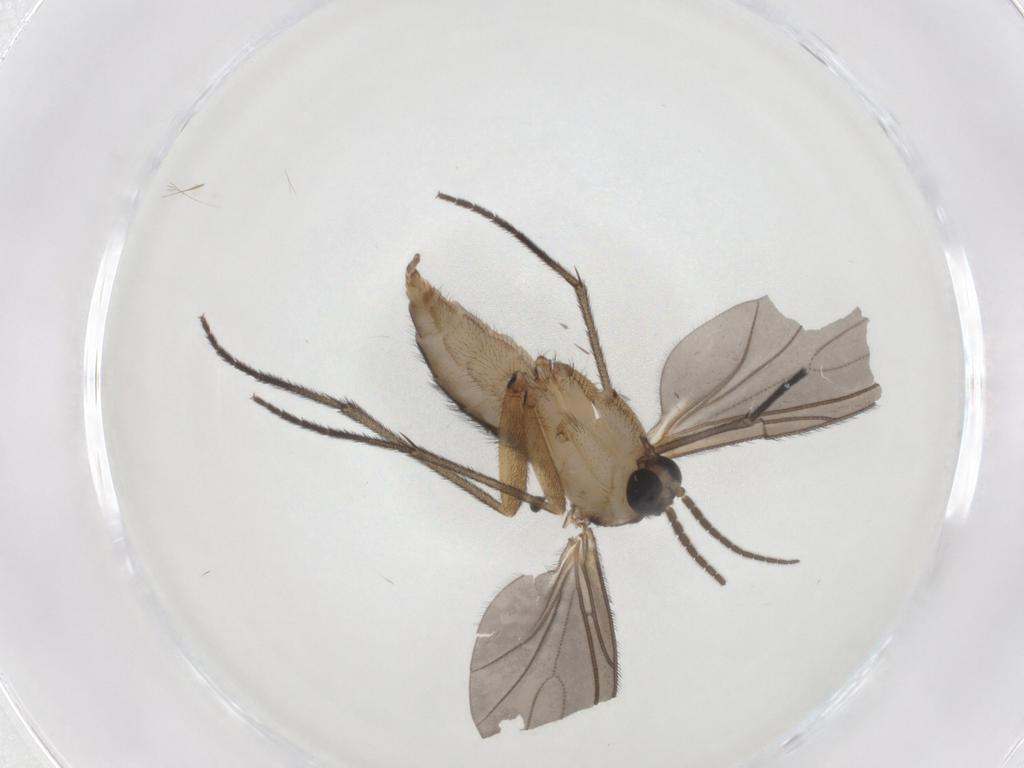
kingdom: Animalia
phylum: Arthropoda
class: Insecta
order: Diptera
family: Sciaridae
